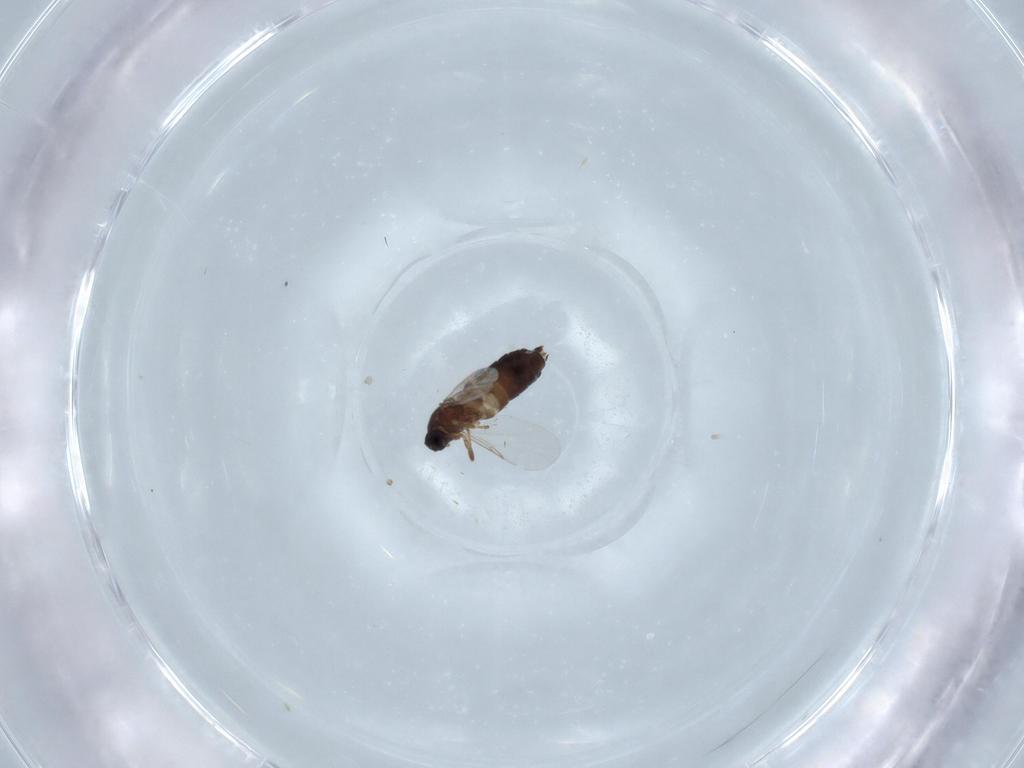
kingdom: Animalia
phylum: Arthropoda
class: Insecta
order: Diptera
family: Scatopsidae
